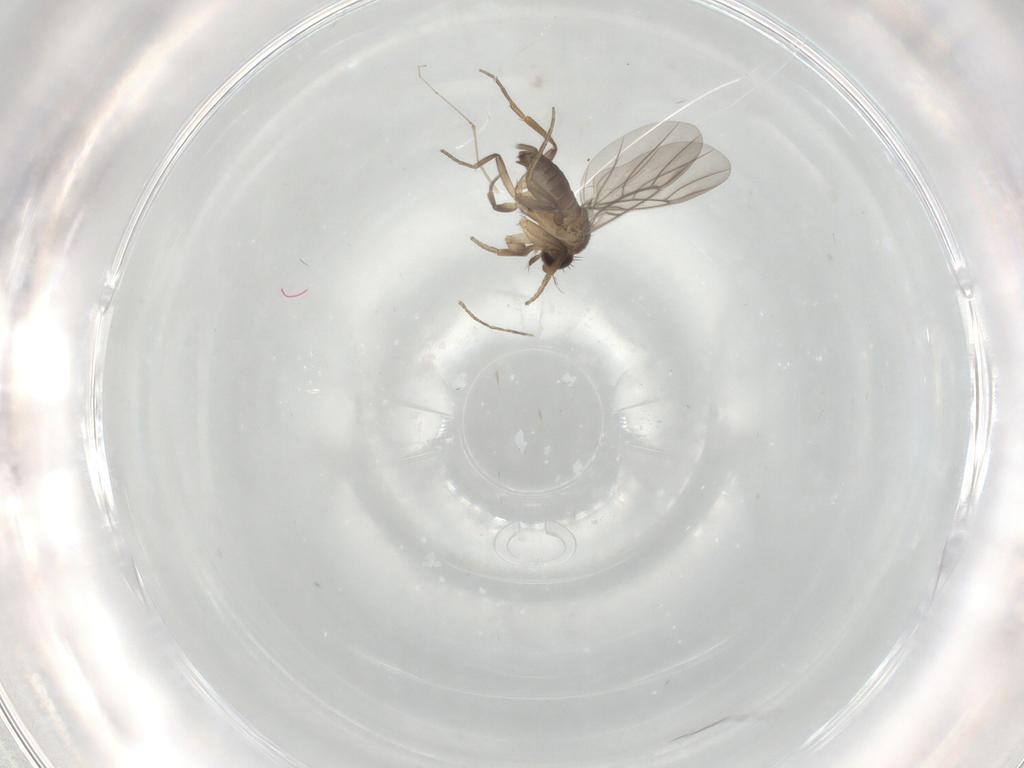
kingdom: Animalia
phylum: Arthropoda
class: Insecta
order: Diptera
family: Phoridae
